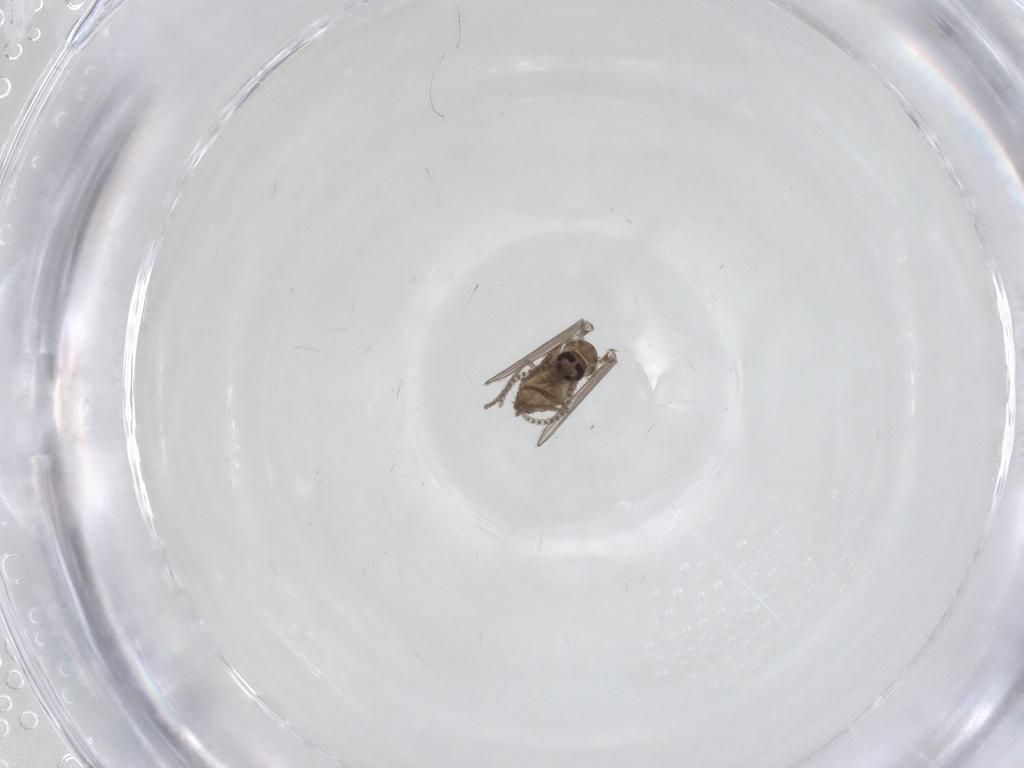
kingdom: Animalia
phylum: Arthropoda
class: Insecta
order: Diptera
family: Psychodidae
